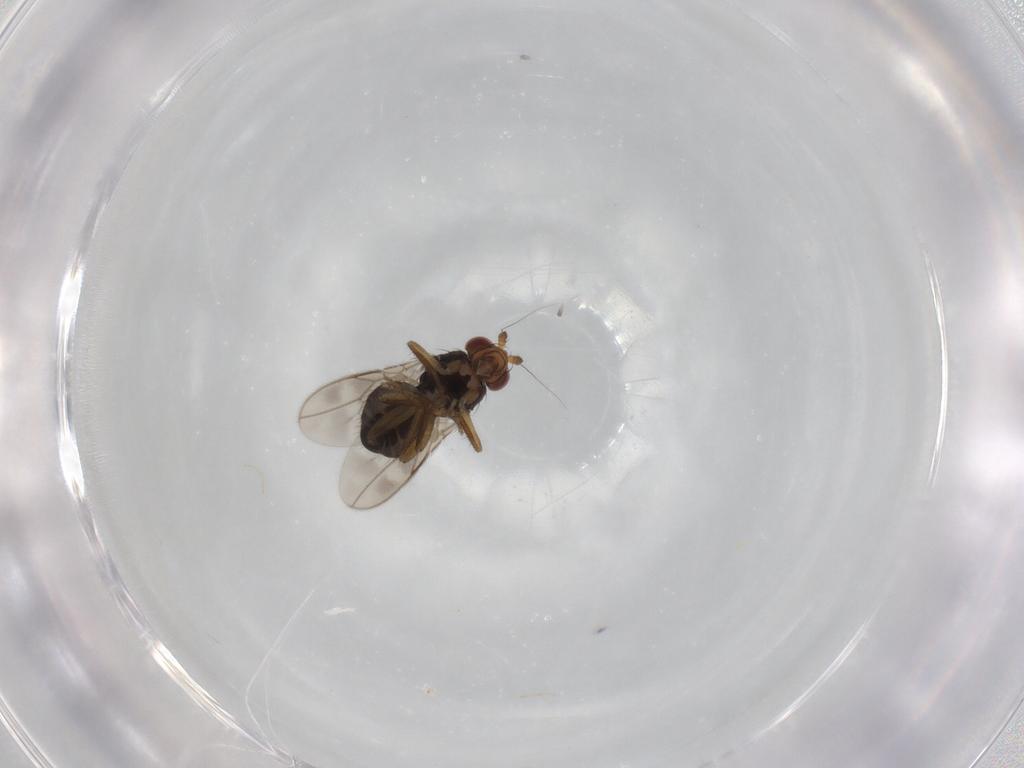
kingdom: Animalia
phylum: Arthropoda
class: Insecta
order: Diptera
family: Sphaeroceridae
